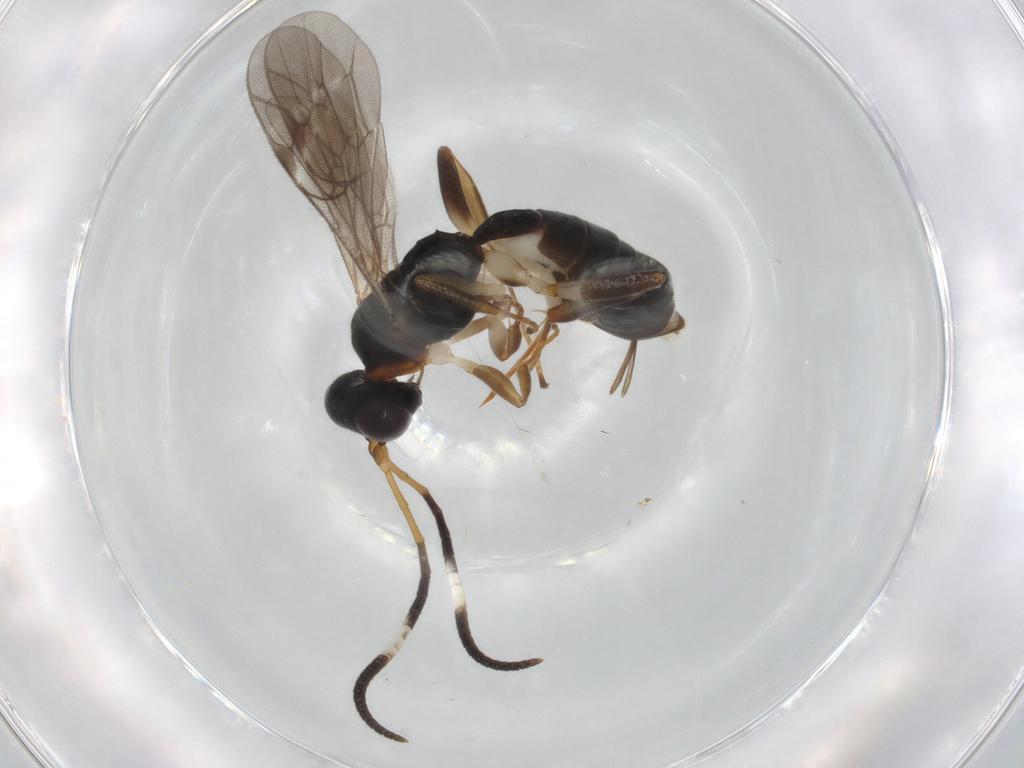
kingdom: Animalia
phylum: Arthropoda
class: Insecta
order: Hymenoptera
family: Ichneumonidae
